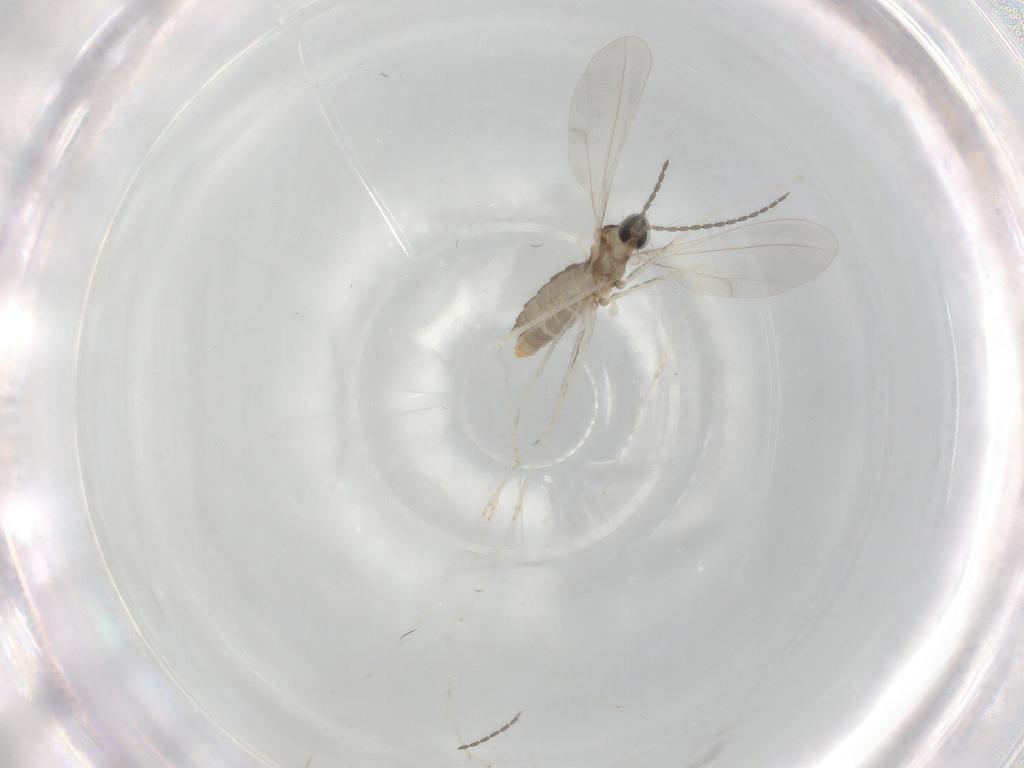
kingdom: Animalia
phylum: Arthropoda
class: Insecta
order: Diptera
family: Cecidomyiidae
